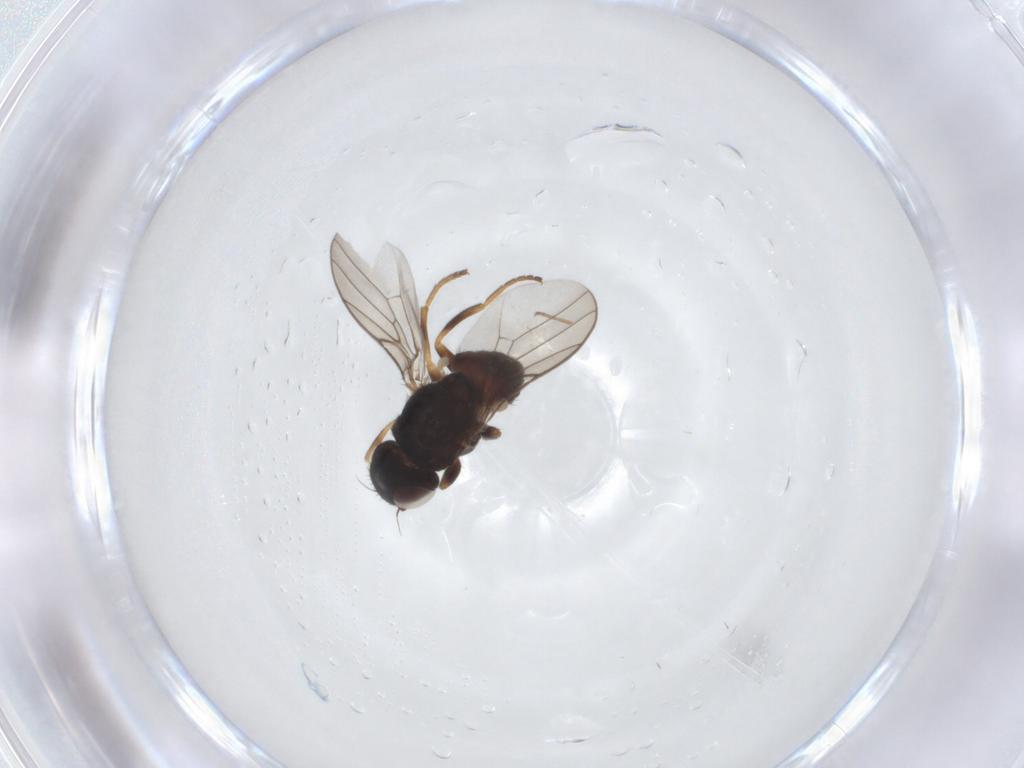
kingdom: Animalia
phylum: Arthropoda
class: Insecta
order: Diptera
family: Chloropidae
